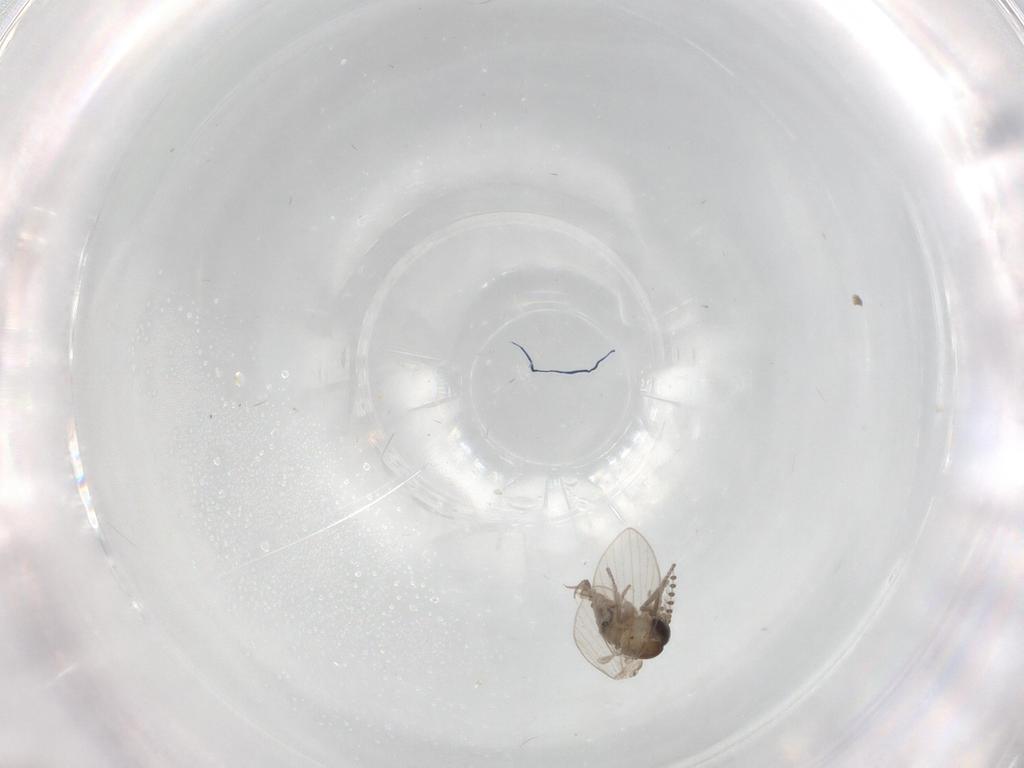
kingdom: Animalia
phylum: Arthropoda
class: Insecta
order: Diptera
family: Psychodidae
